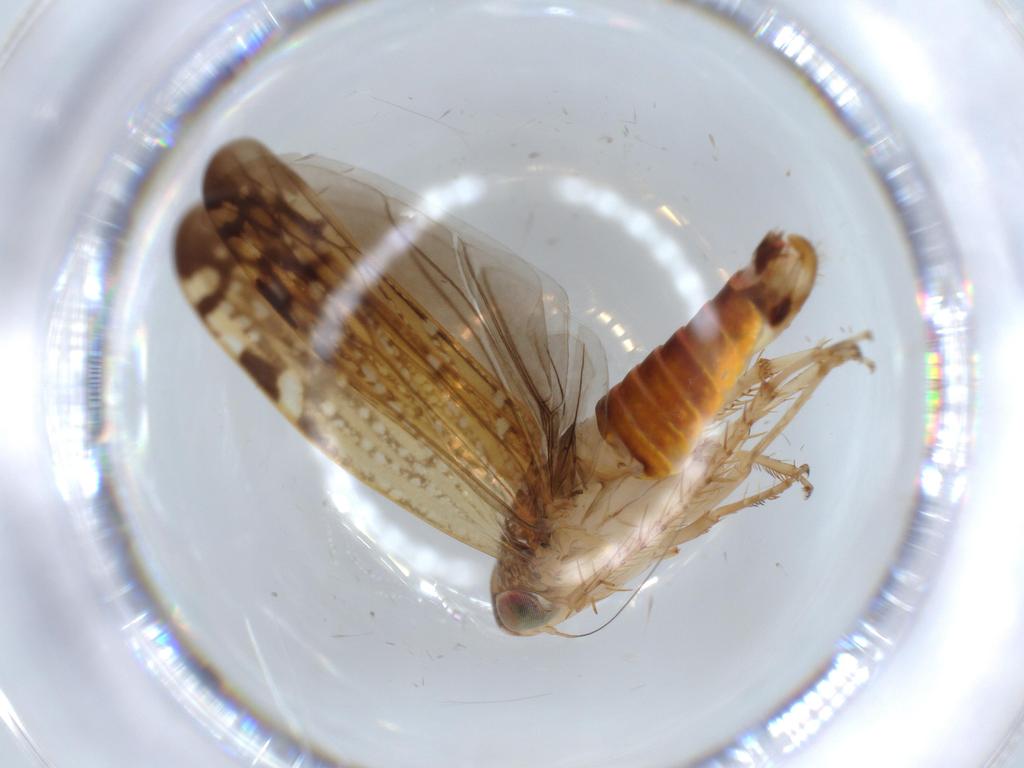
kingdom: Animalia
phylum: Arthropoda
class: Insecta
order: Hemiptera
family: Cicadellidae
